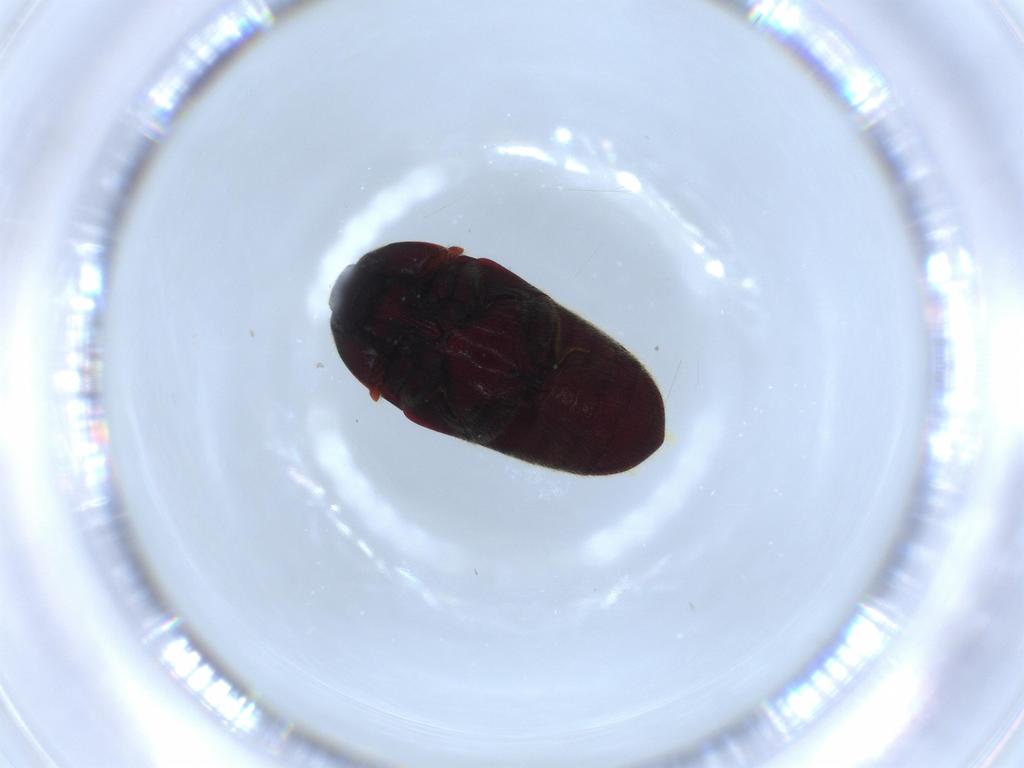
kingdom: Animalia
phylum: Arthropoda
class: Insecta
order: Coleoptera
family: Throscidae
